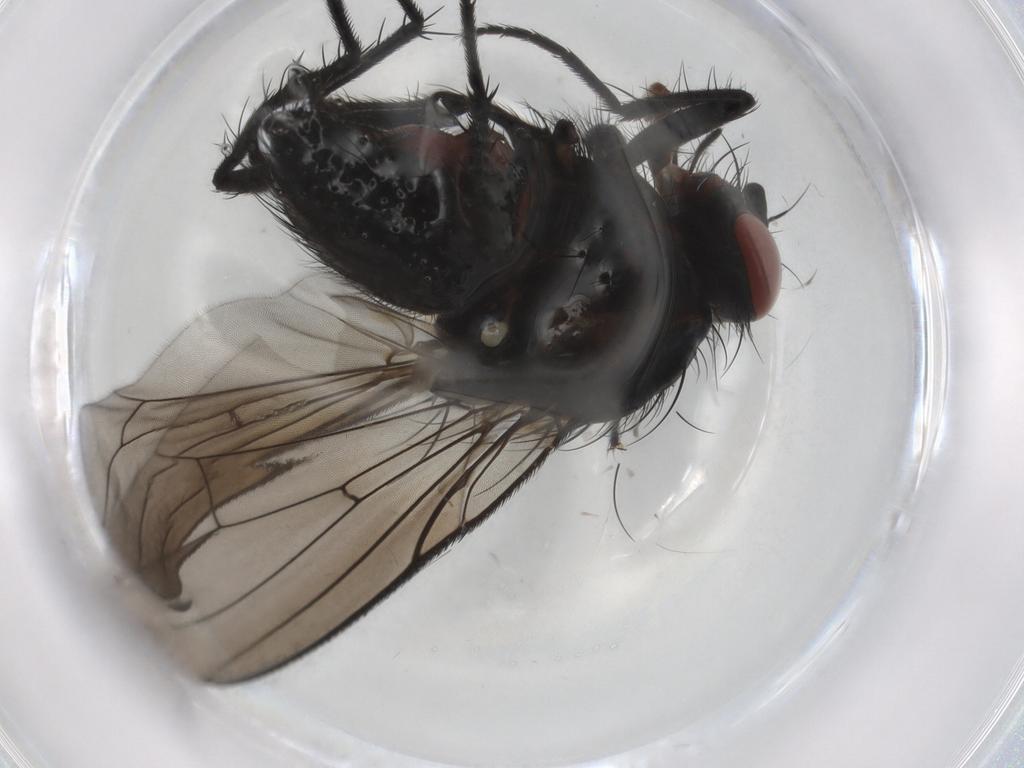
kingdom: Animalia
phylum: Arthropoda
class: Insecta
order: Diptera
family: Anthomyiidae
